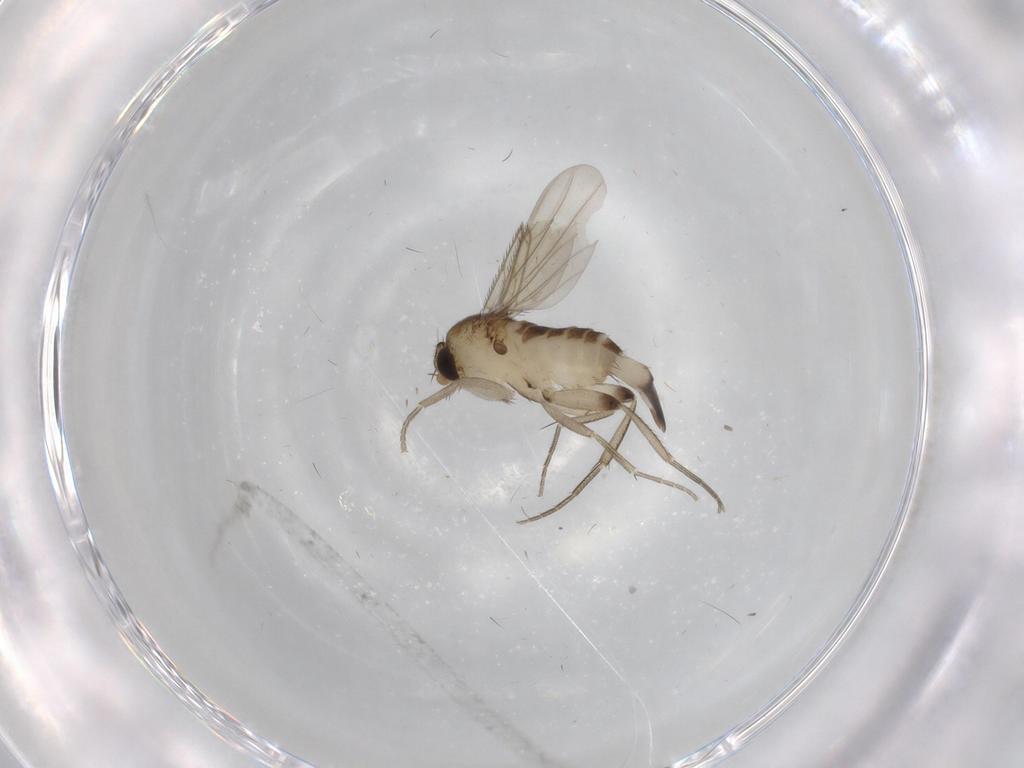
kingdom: Animalia
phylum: Arthropoda
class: Insecta
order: Diptera
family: Phoridae
